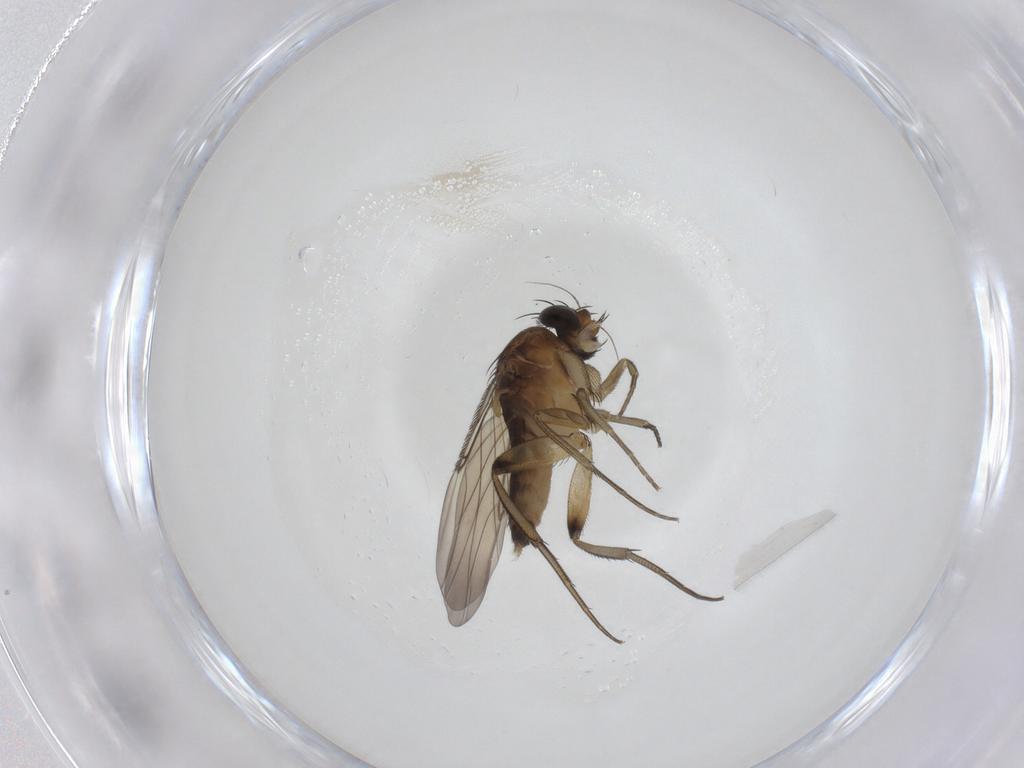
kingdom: Animalia
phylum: Arthropoda
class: Insecta
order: Diptera
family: Phoridae
